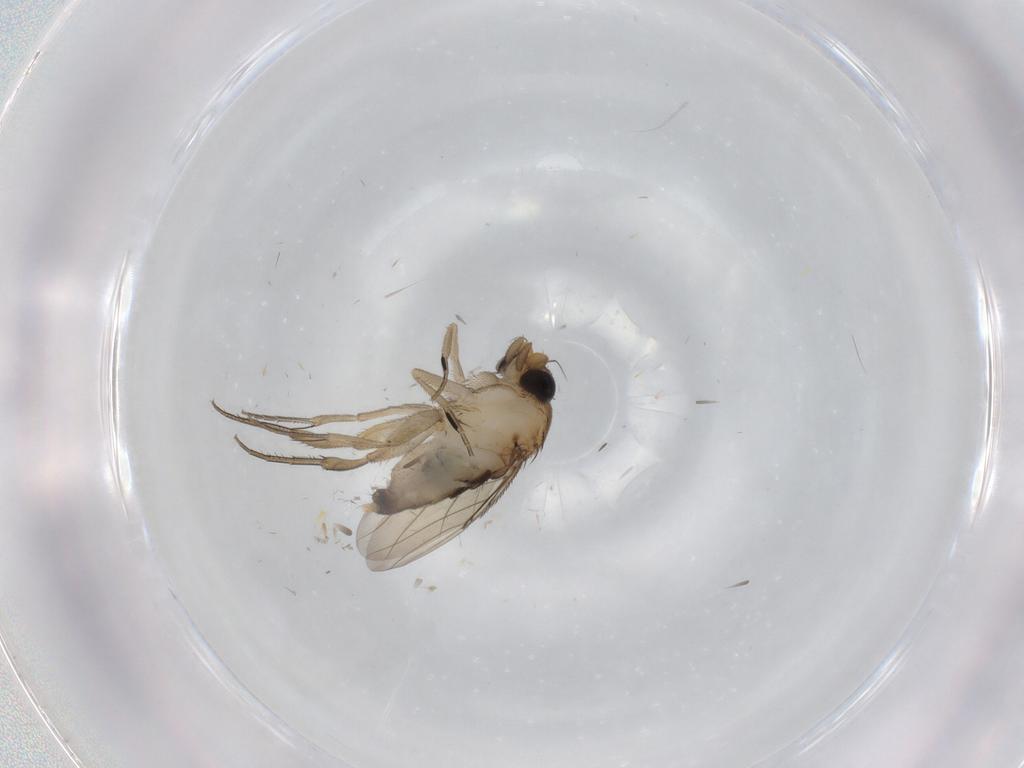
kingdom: Animalia
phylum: Arthropoda
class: Insecta
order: Diptera
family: Phoridae
